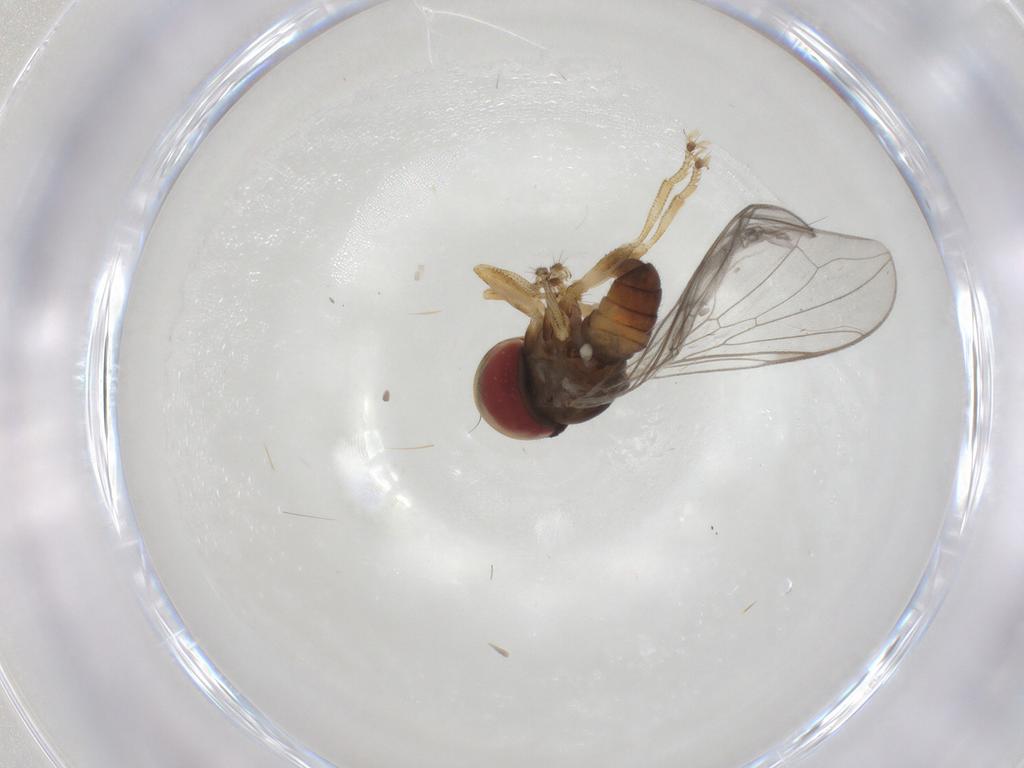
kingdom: Animalia
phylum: Arthropoda
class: Insecta
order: Diptera
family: Pipunculidae
